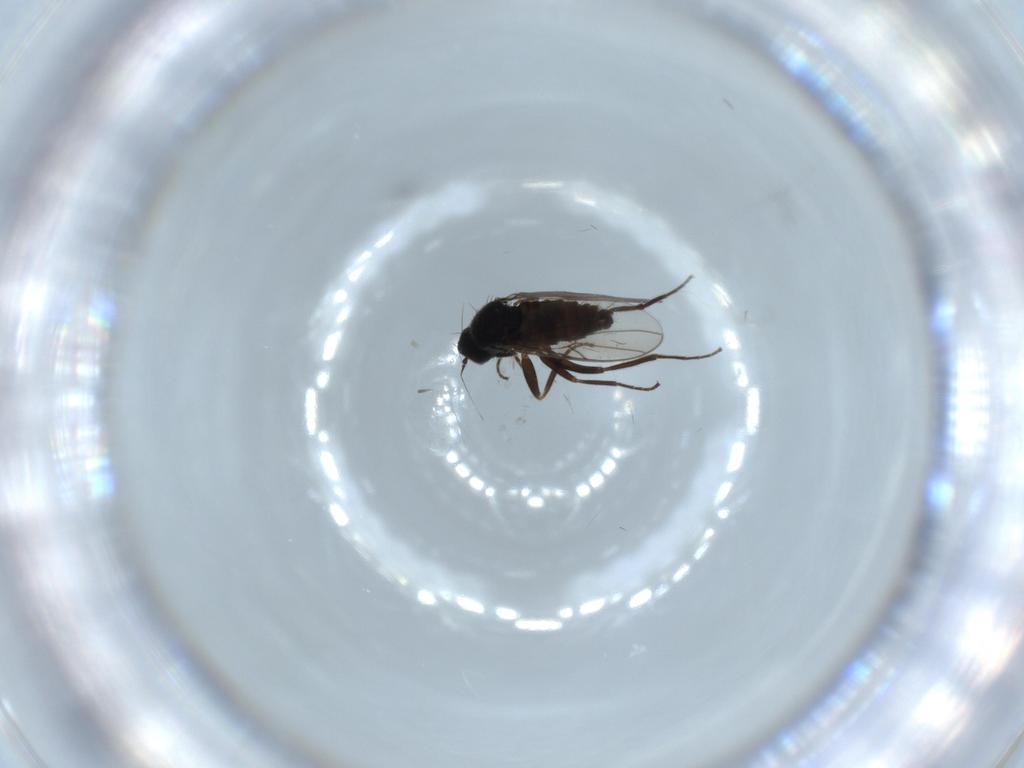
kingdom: Animalia
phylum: Arthropoda
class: Insecta
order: Diptera
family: Hybotidae
